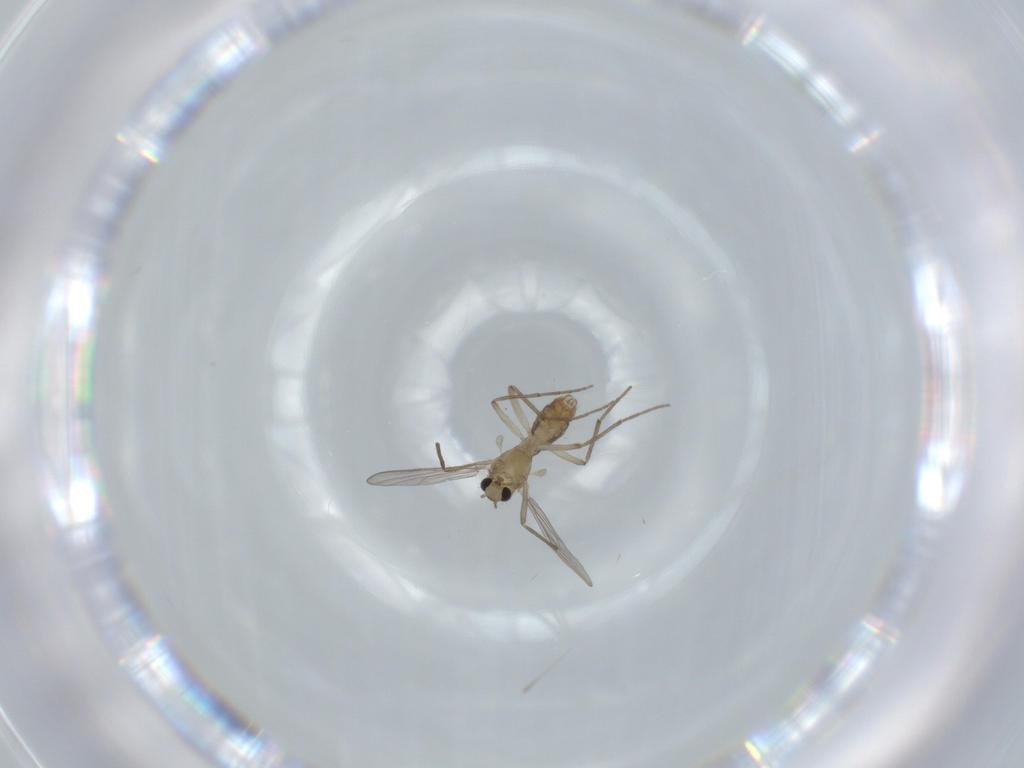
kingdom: Animalia
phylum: Arthropoda
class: Insecta
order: Diptera
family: Chironomidae
